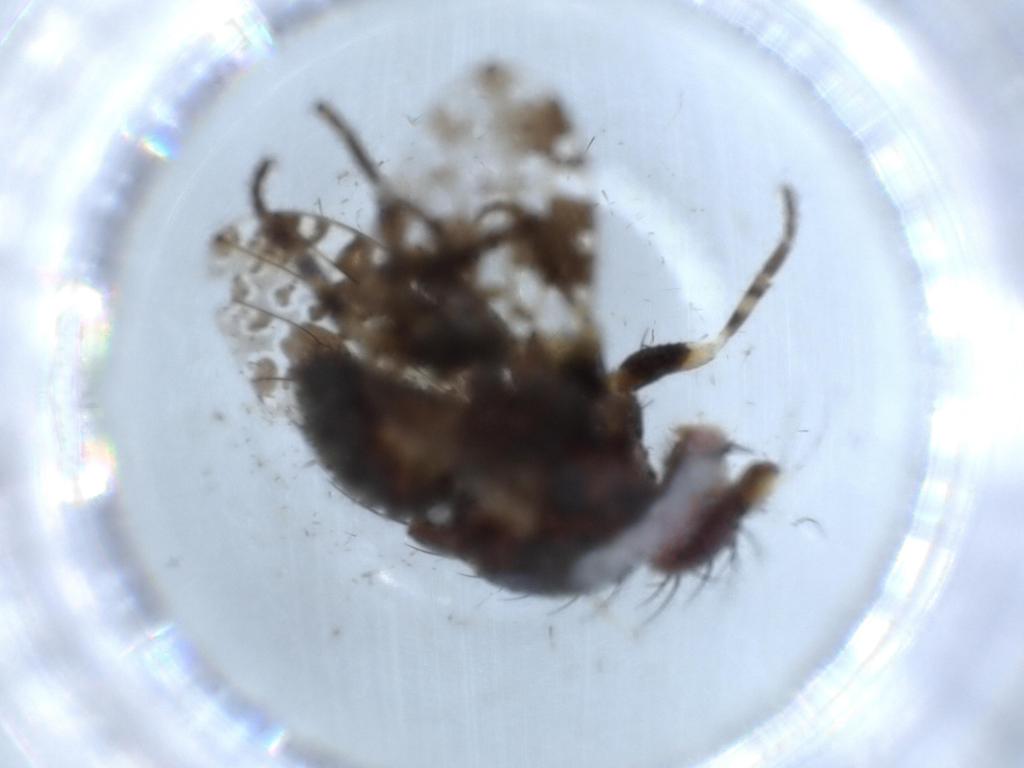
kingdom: Animalia
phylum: Arthropoda
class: Insecta
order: Diptera
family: Odiniidae
